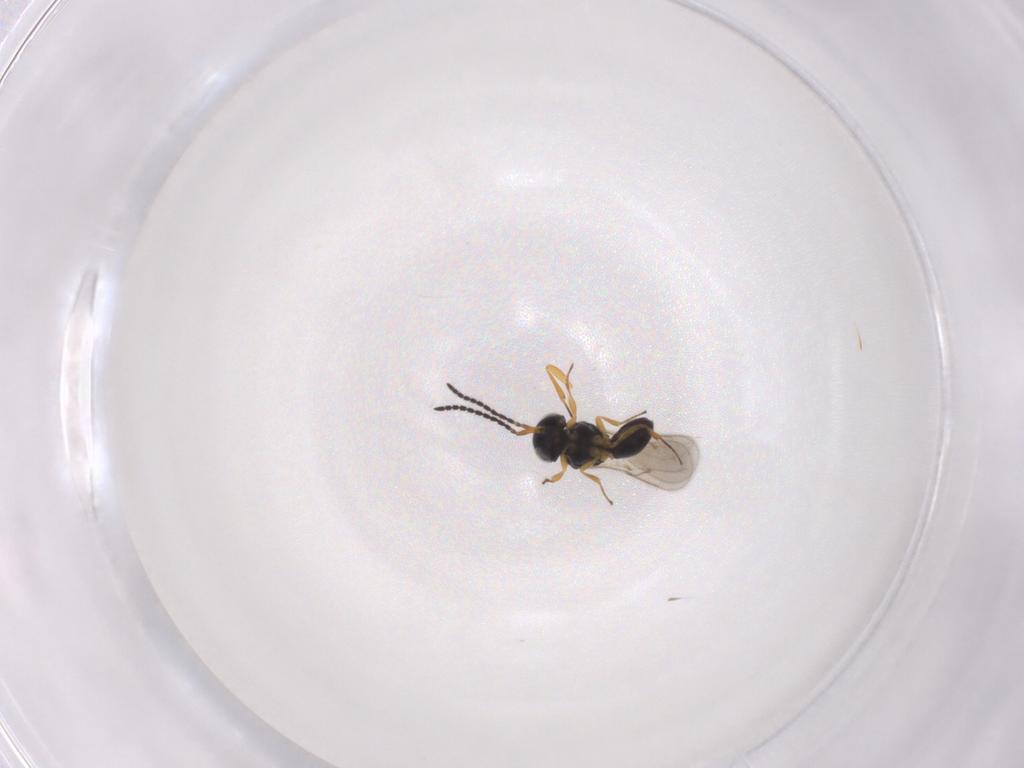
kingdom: Animalia
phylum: Arthropoda
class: Insecta
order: Hymenoptera
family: Scelionidae
